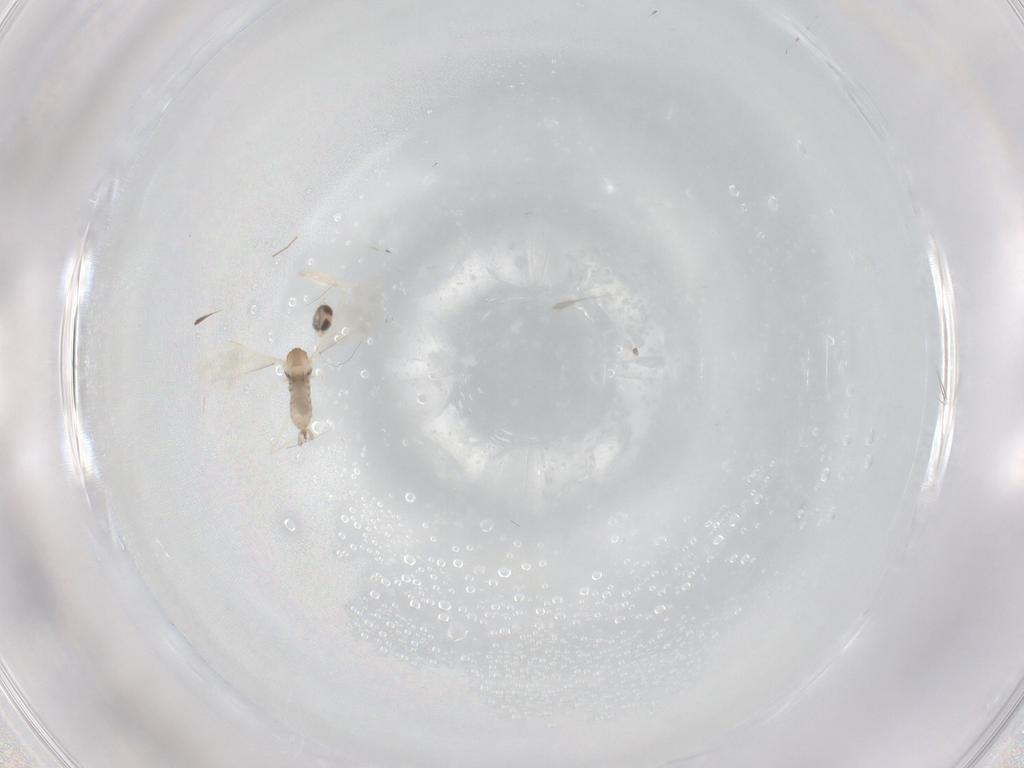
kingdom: Animalia
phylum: Arthropoda
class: Insecta
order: Diptera
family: Cecidomyiidae
